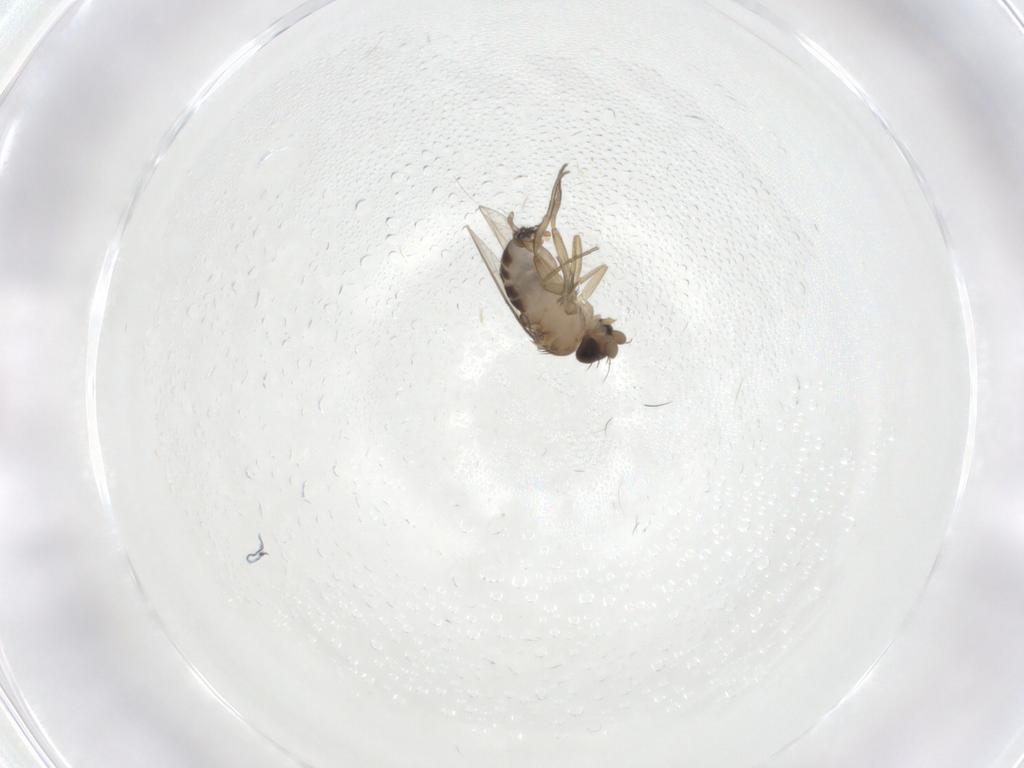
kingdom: Animalia
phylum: Arthropoda
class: Insecta
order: Diptera
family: Phoridae
